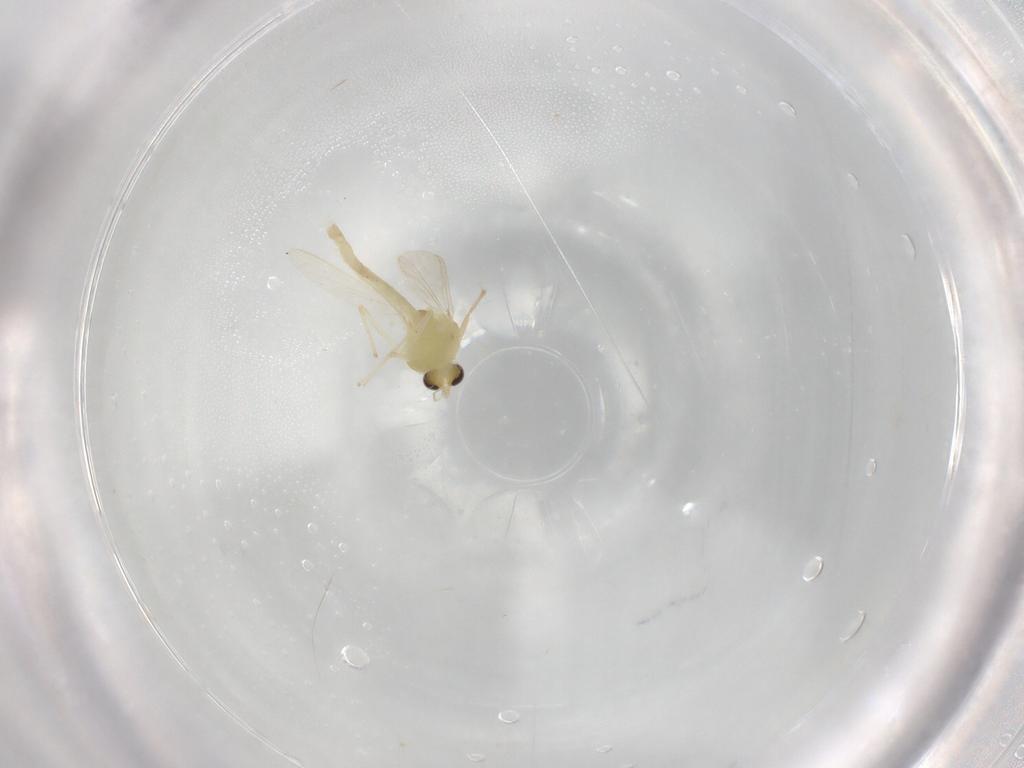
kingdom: Animalia
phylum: Arthropoda
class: Insecta
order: Diptera
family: Chironomidae
